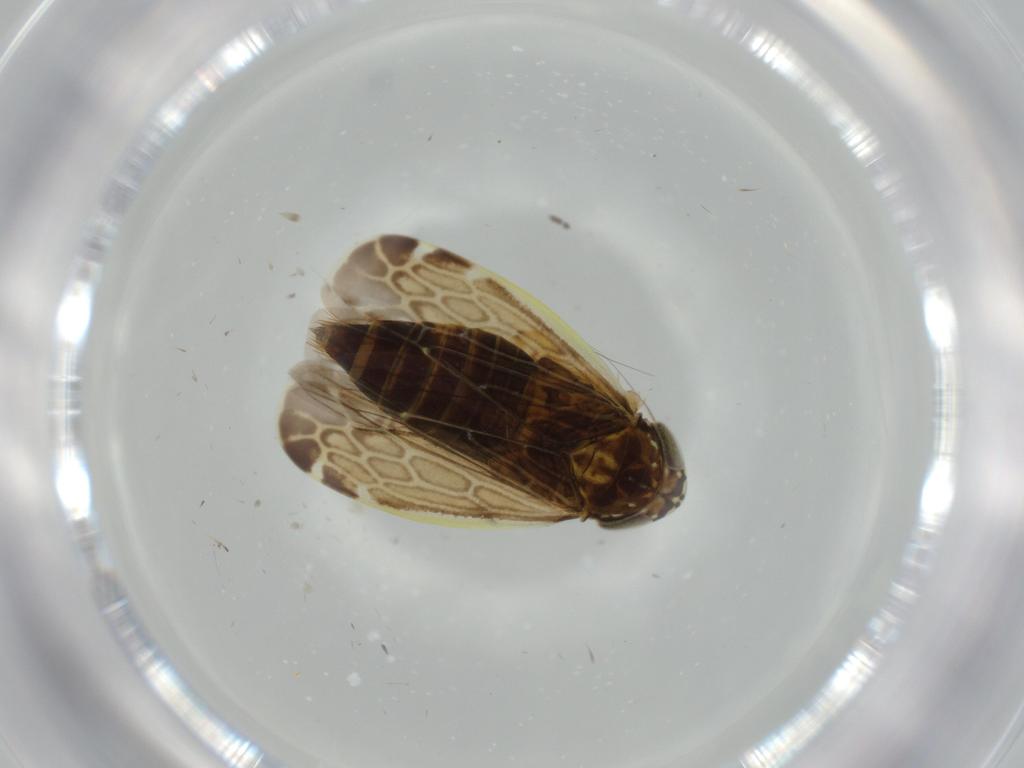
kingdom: Animalia
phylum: Arthropoda
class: Insecta
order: Hemiptera
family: Cicadellidae
